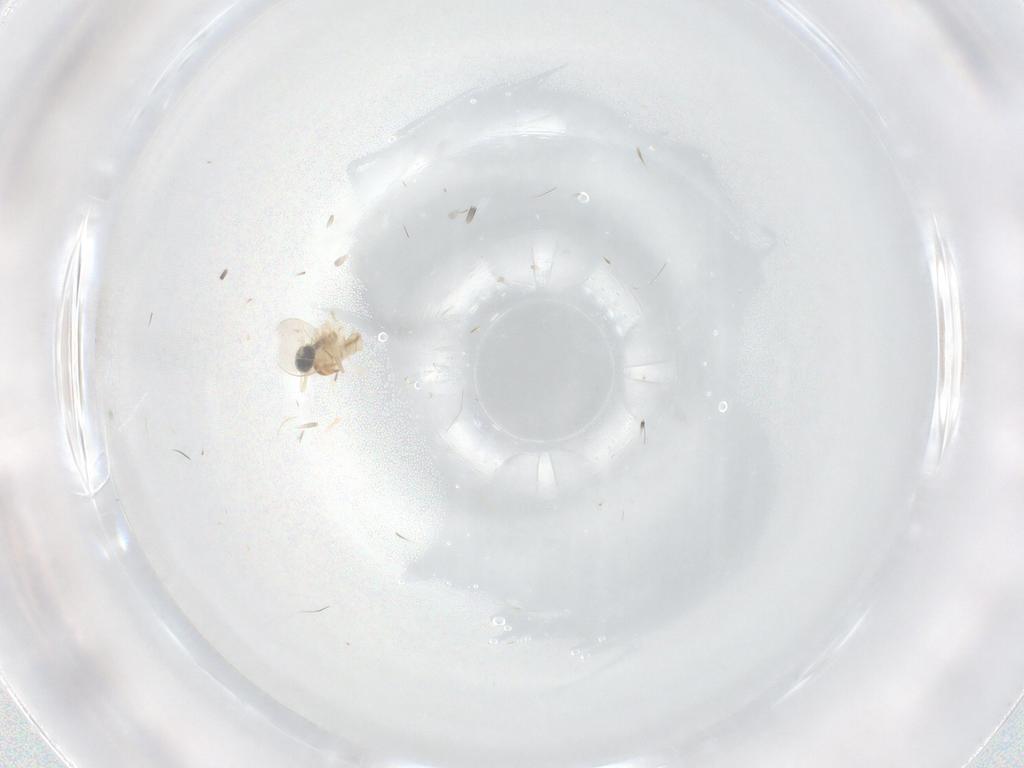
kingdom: Animalia
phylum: Arthropoda
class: Insecta
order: Diptera
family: Cecidomyiidae
